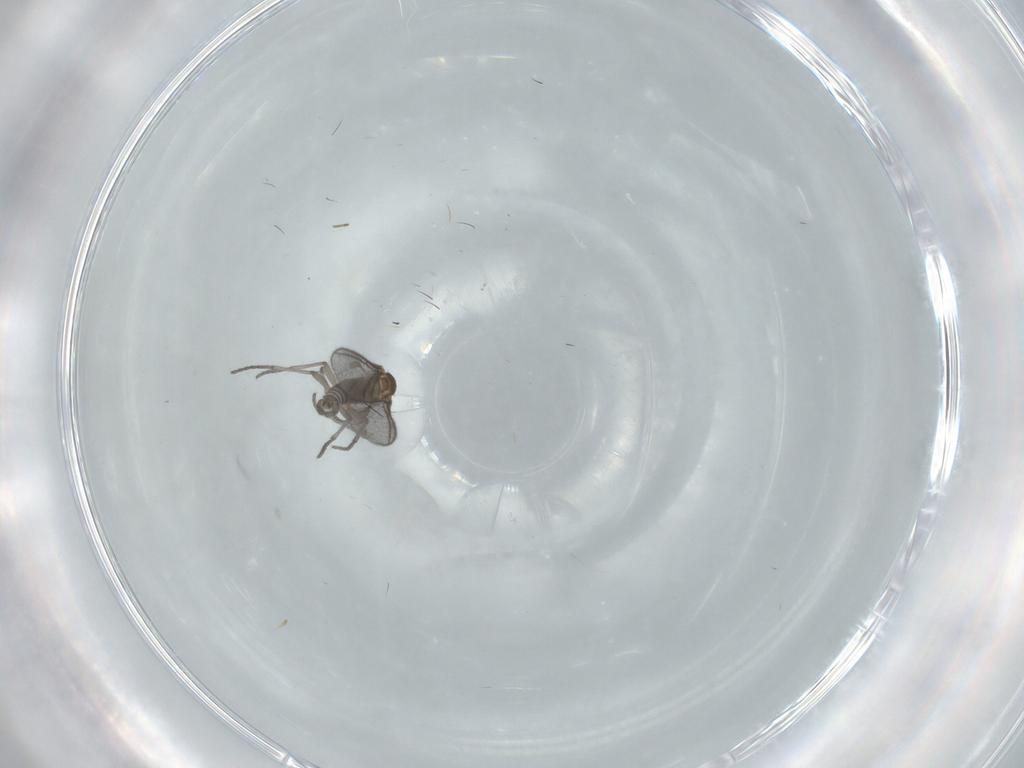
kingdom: Animalia
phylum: Arthropoda
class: Insecta
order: Diptera
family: Sciaridae
